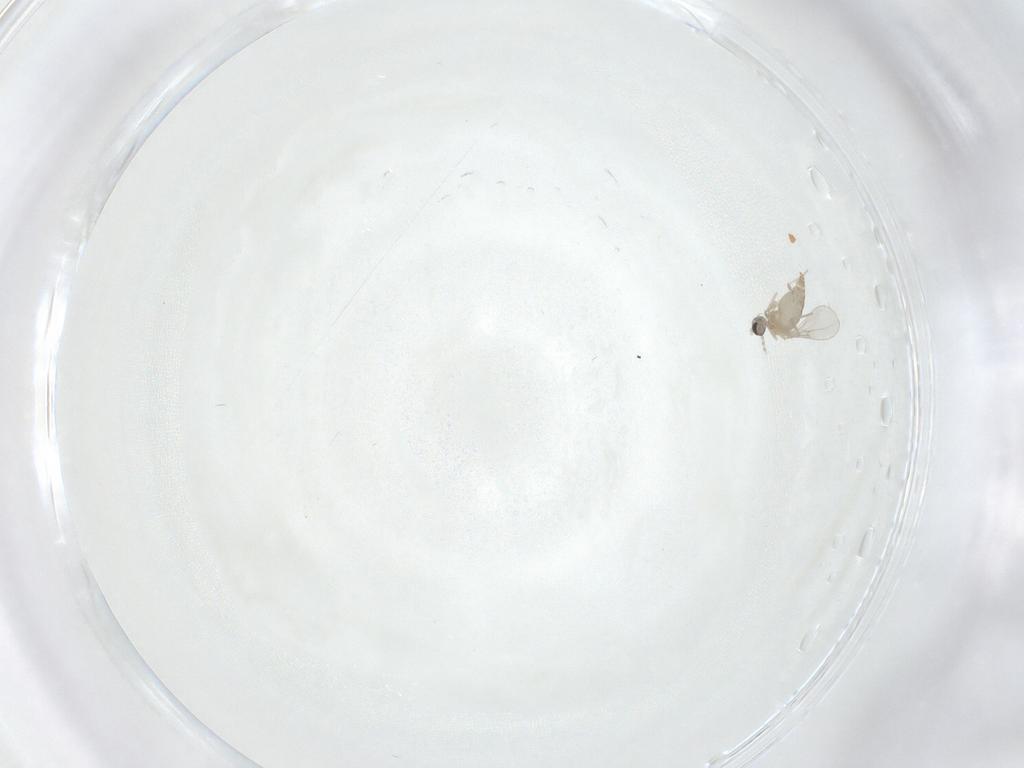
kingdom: Animalia
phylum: Arthropoda
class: Insecta
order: Diptera
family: Cecidomyiidae
